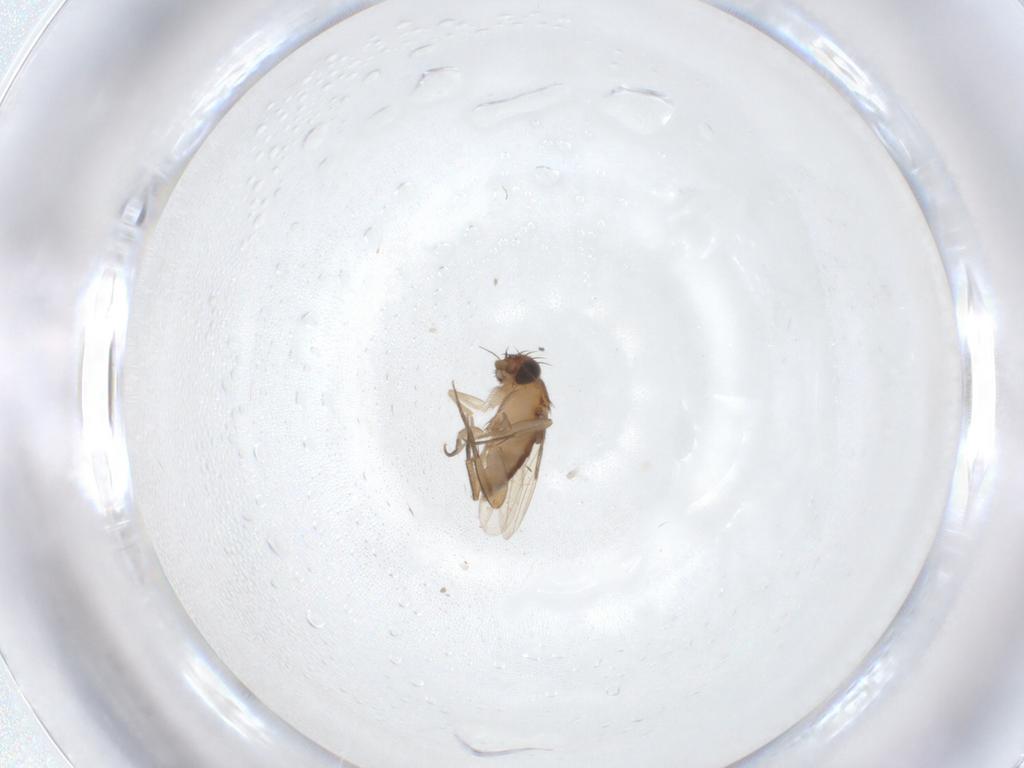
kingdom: Animalia
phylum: Arthropoda
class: Insecta
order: Diptera
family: Phoridae
